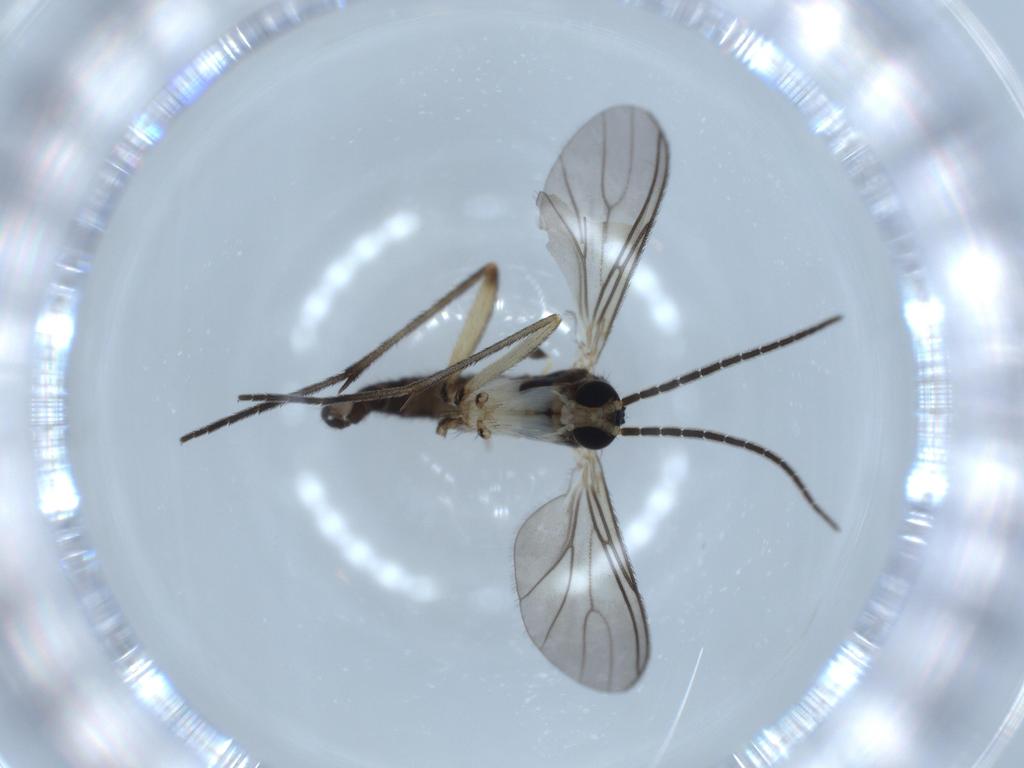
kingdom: Animalia
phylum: Arthropoda
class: Insecta
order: Diptera
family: Sciaridae
